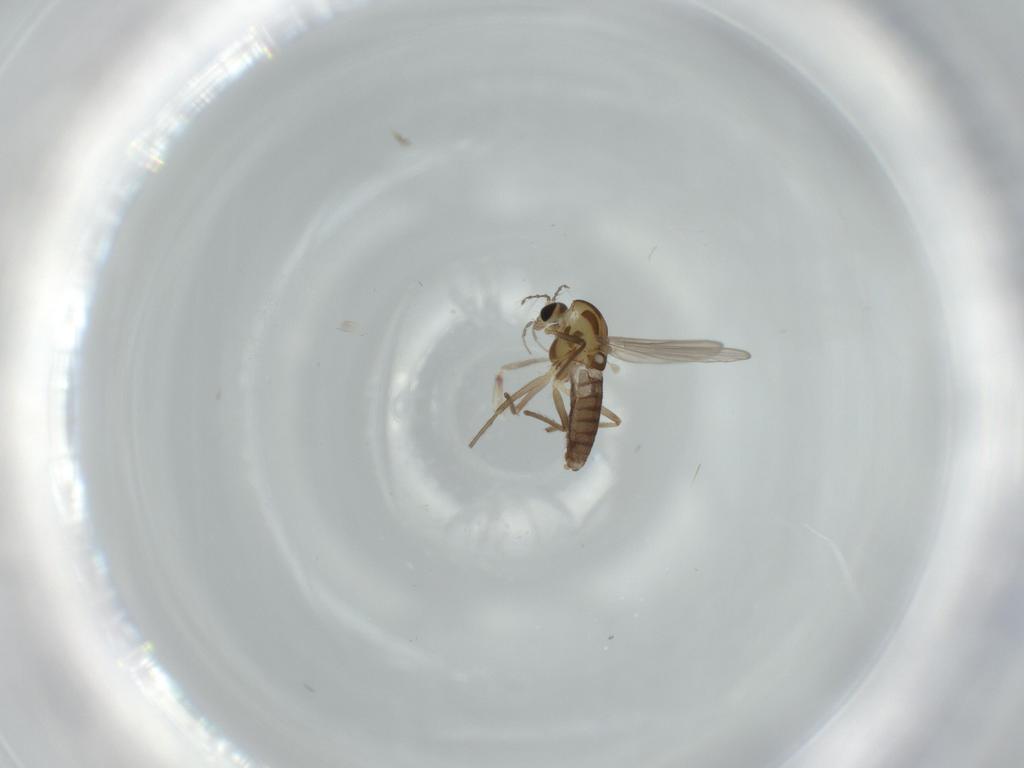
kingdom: Animalia
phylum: Arthropoda
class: Insecta
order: Diptera
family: Chironomidae
